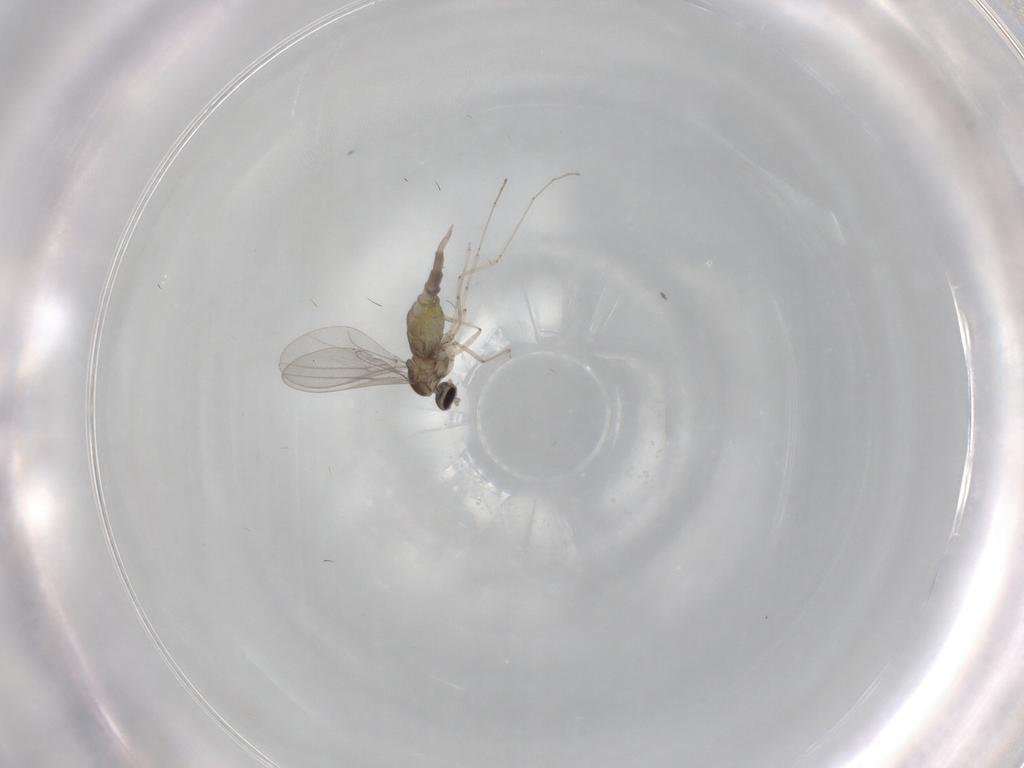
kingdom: Animalia
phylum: Arthropoda
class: Insecta
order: Diptera
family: Cecidomyiidae
